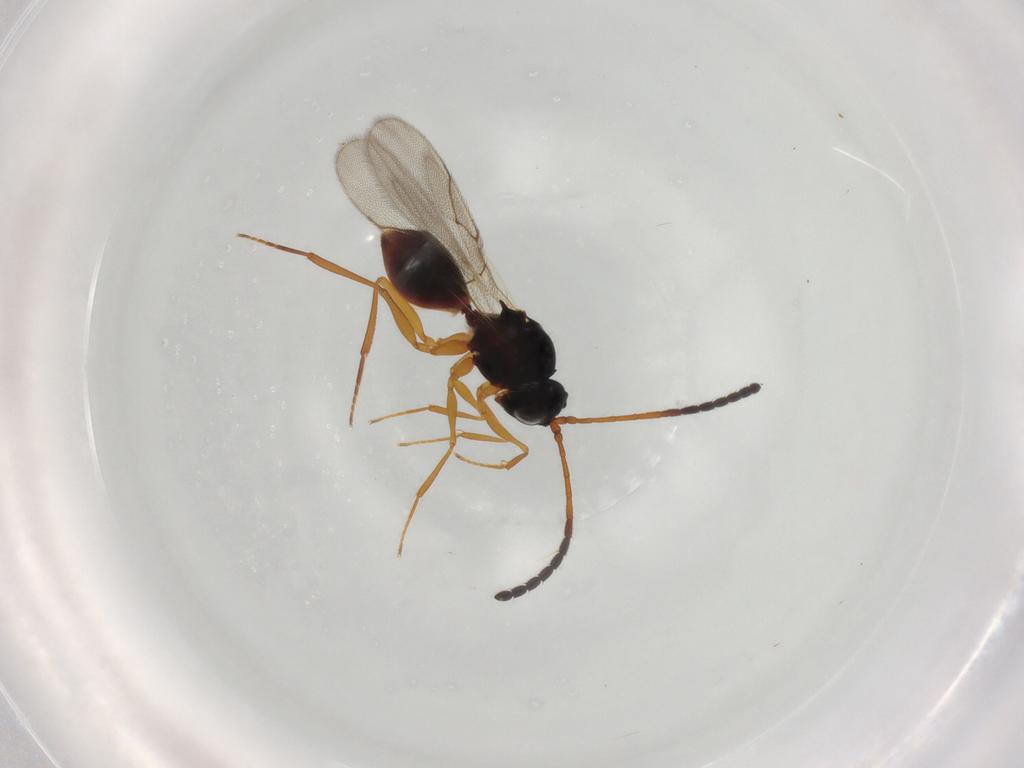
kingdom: Animalia
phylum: Arthropoda
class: Insecta
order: Hymenoptera
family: Figitidae
